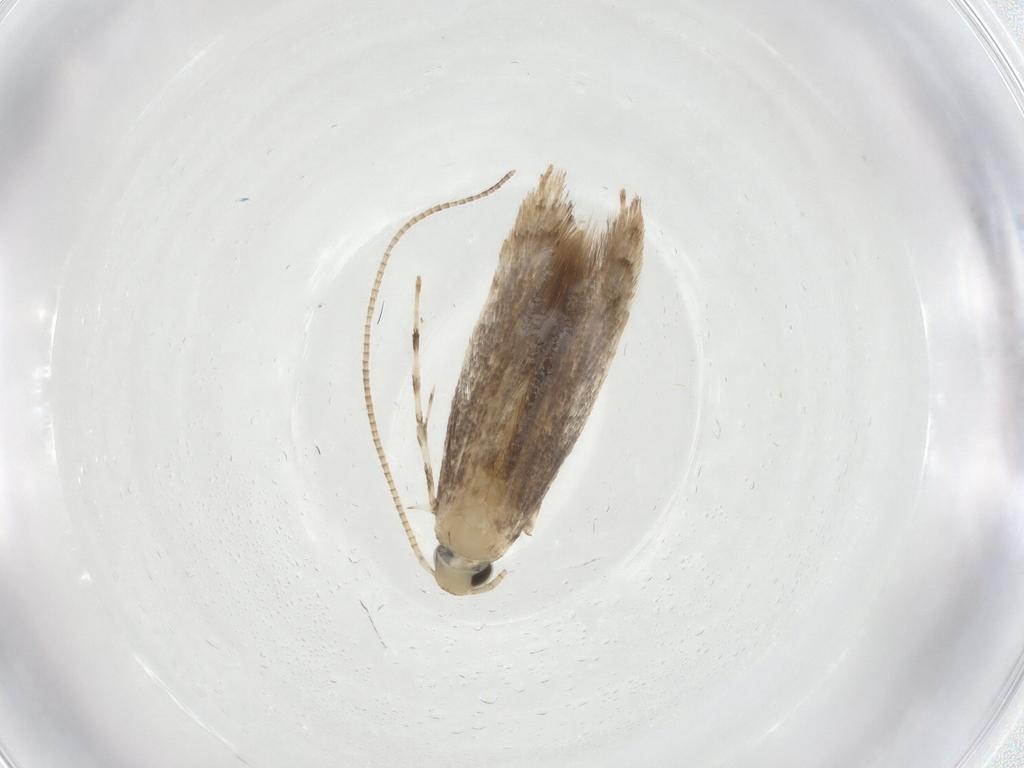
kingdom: Animalia
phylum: Arthropoda
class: Insecta
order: Lepidoptera
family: Gracillariidae
